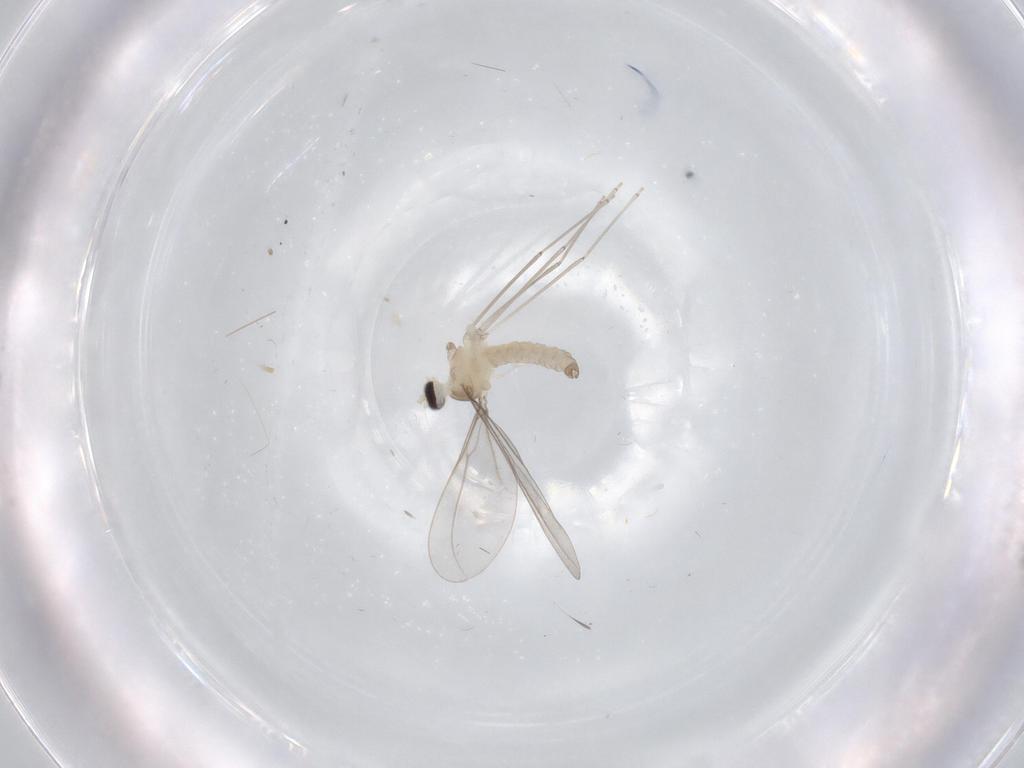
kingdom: Animalia
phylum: Arthropoda
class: Insecta
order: Diptera
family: Cecidomyiidae
